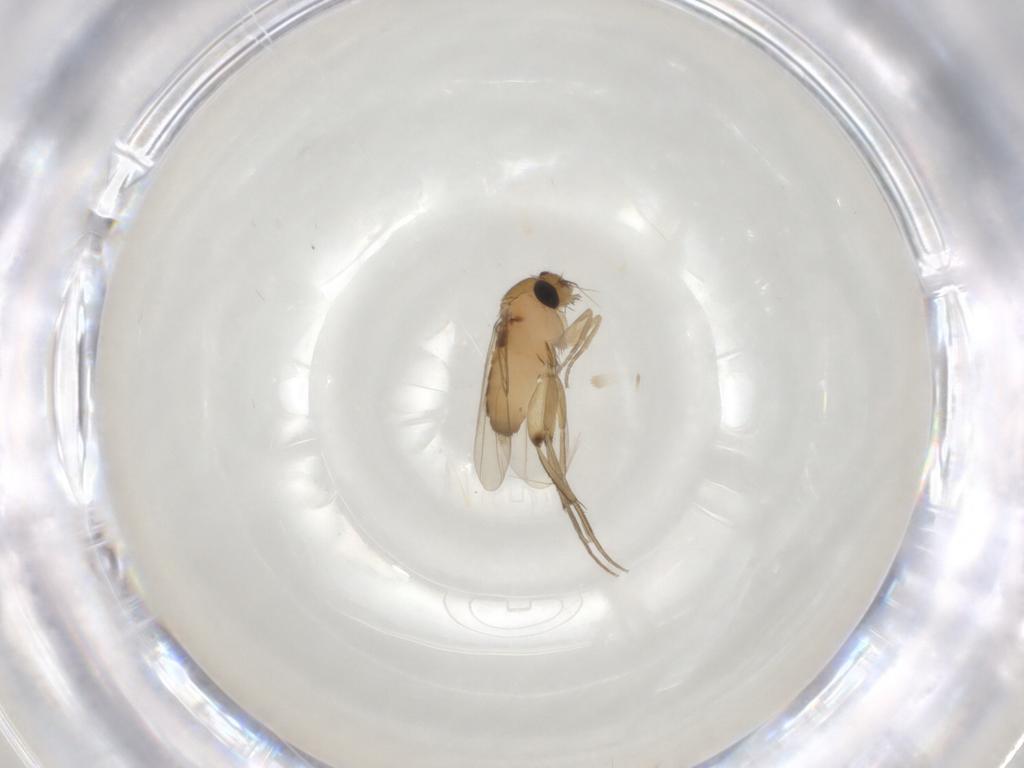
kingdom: Animalia
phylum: Arthropoda
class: Insecta
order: Diptera
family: Phoridae
